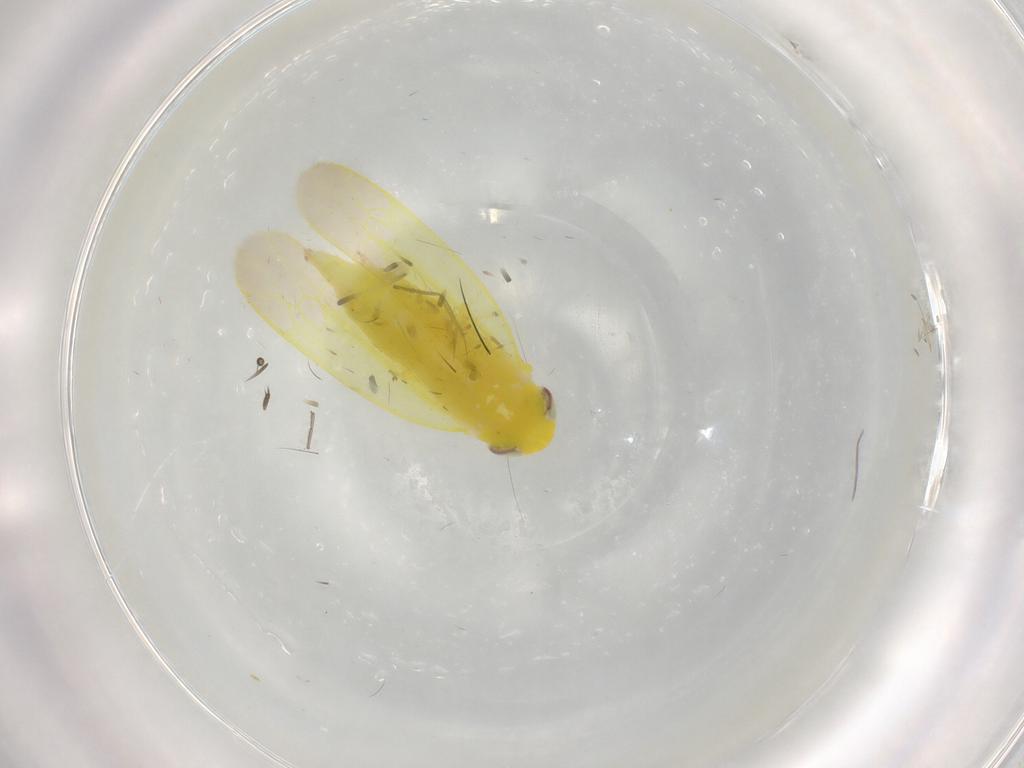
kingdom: Animalia
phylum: Arthropoda
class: Insecta
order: Hemiptera
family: Cicadellidae
